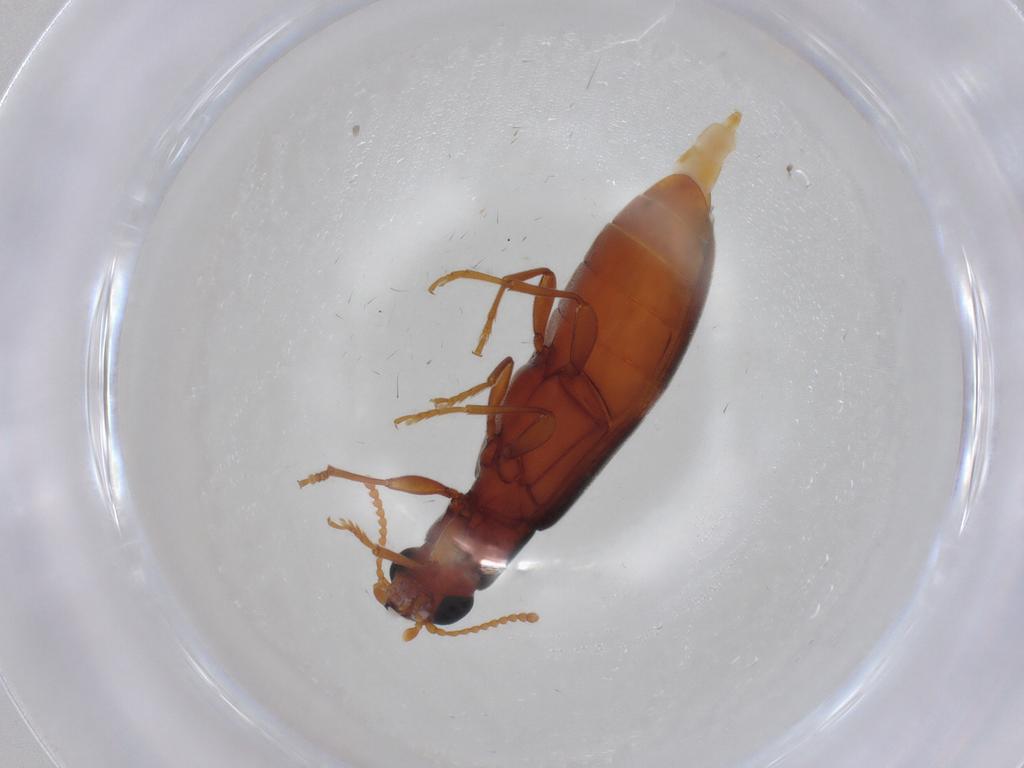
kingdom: Animalia
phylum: Arthropoda
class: Insecta
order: Coleoptera
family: Mycteridae
